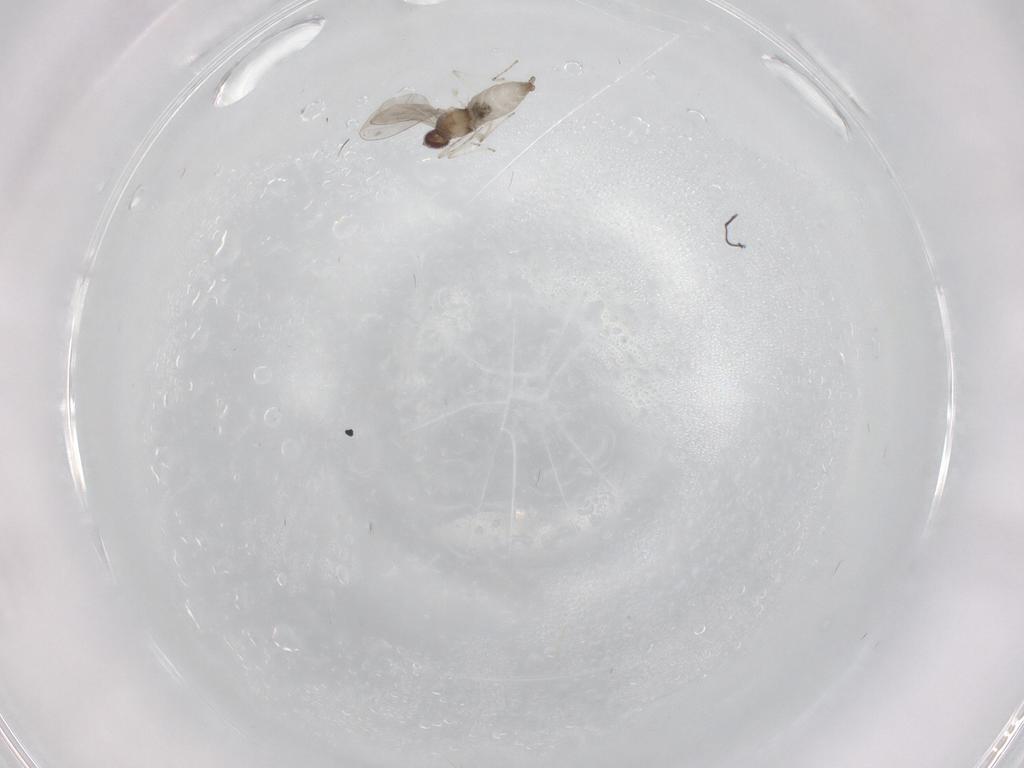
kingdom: Animalia
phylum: Arthropoda
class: Insecta
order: Diptera
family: Cecidomyiidae
